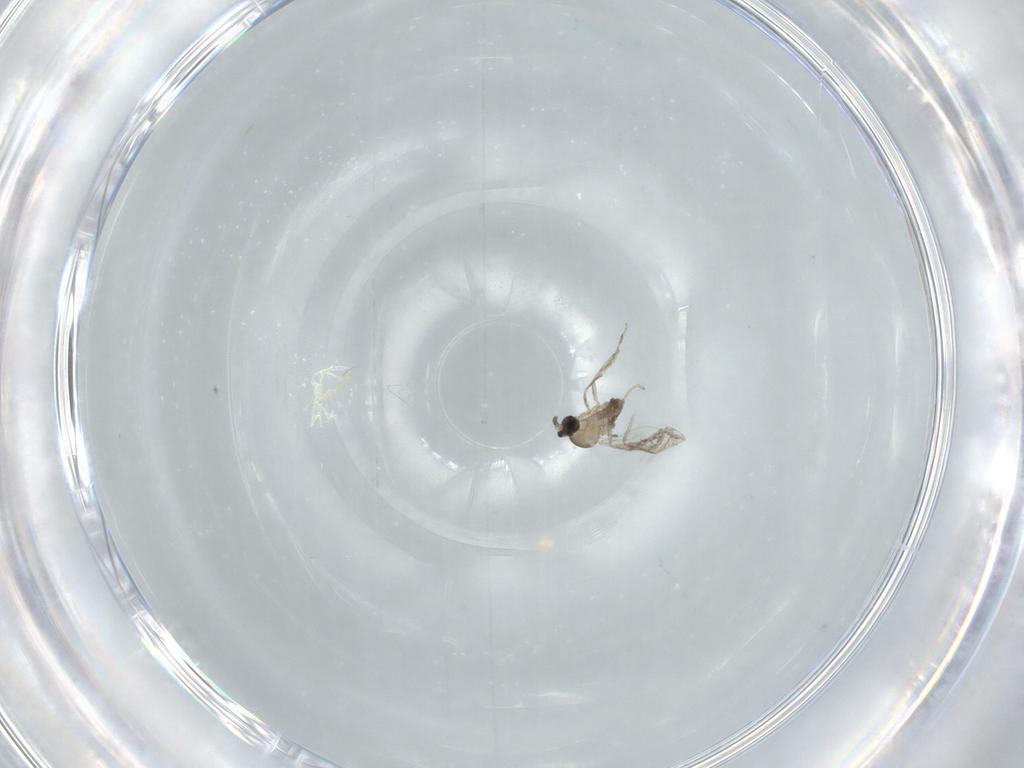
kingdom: Animalia
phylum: Arthropoda
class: Insecta
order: Diptera
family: Cecidomyiidae
